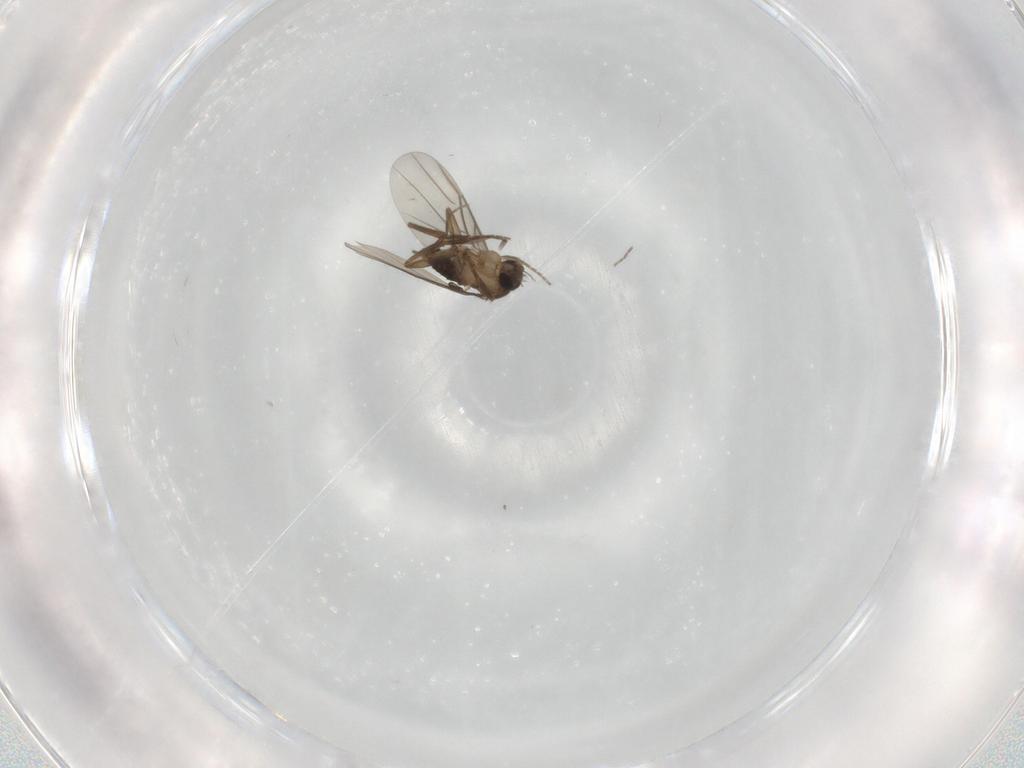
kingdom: Animalia
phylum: Arthropoda
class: Insecta
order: Diptera
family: Phoridae
